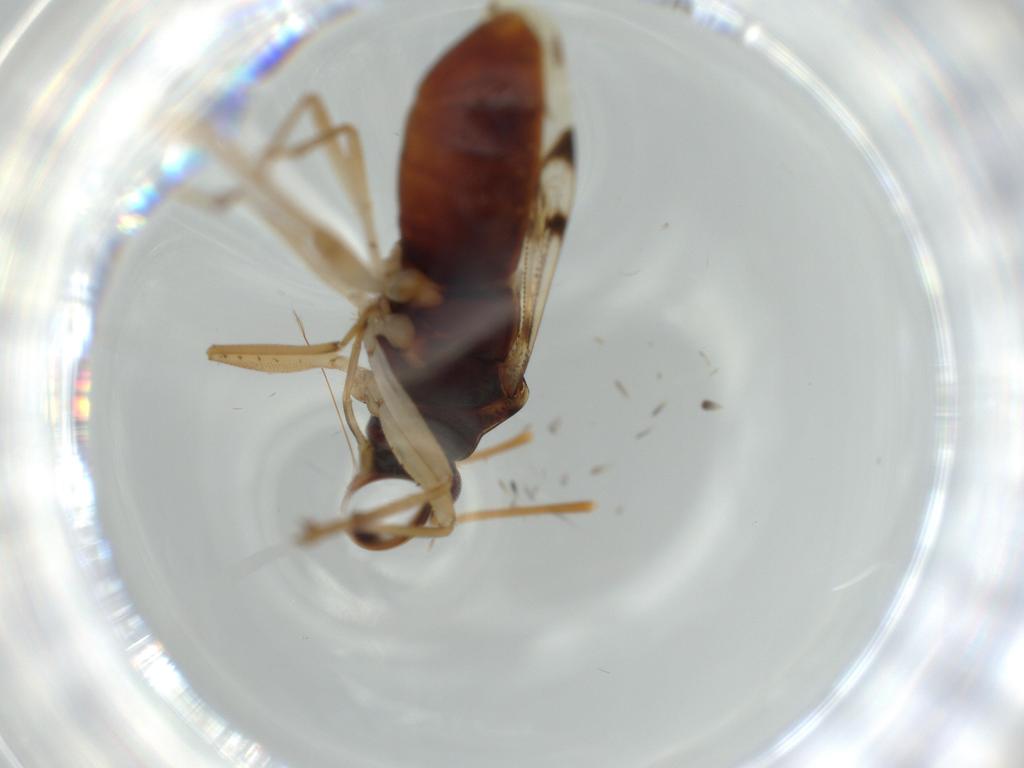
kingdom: Animalia
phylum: Arthropoda
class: Insecta
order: Hemiptera
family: Rhyparochromidae
